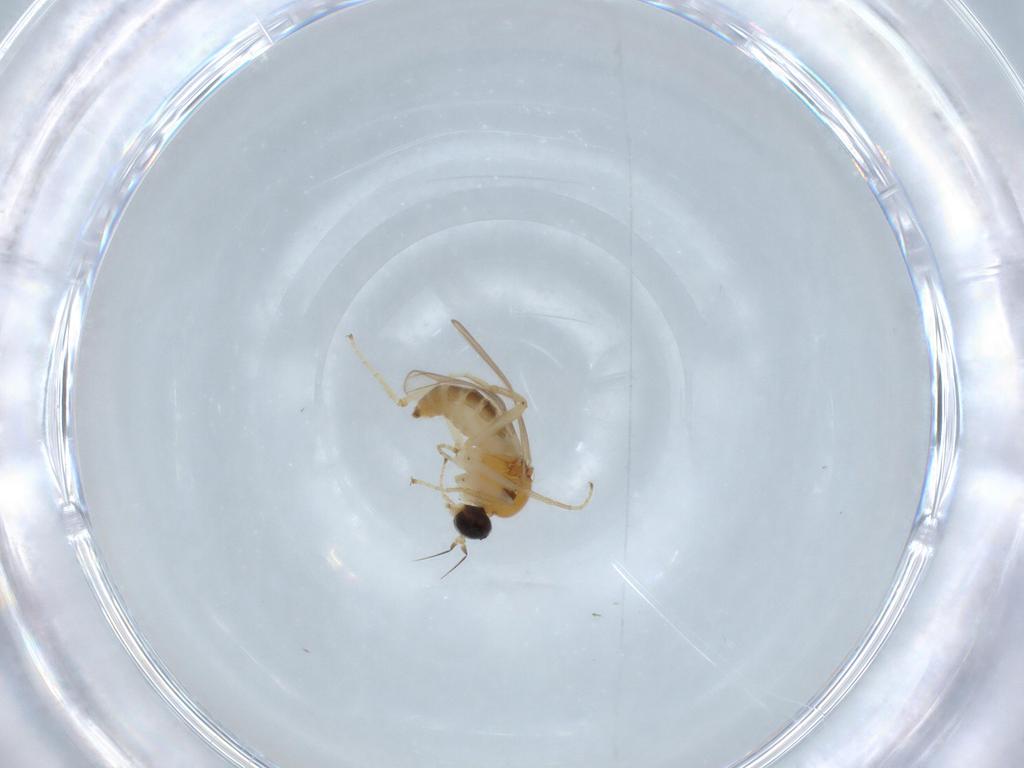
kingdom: Animalia
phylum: Arthropoda
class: Insecta
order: Diptera
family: Hybotidae
